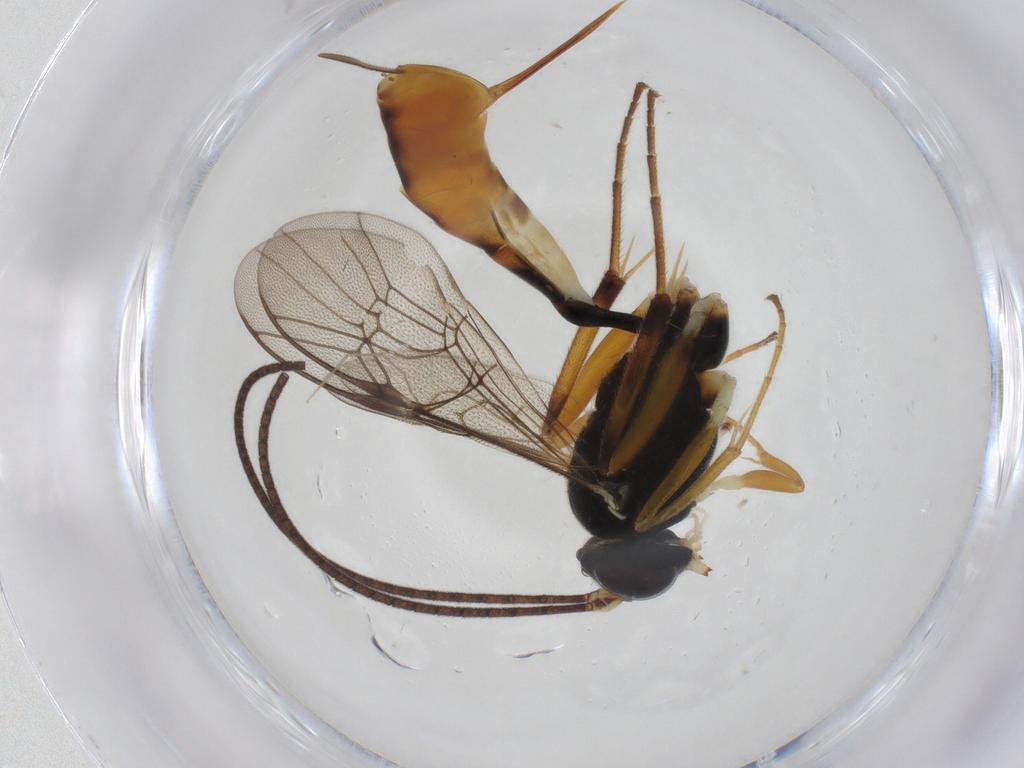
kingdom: Animalia
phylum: Arthropoda
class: Insecta
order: Hymenoptera
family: Ichneumonidae
